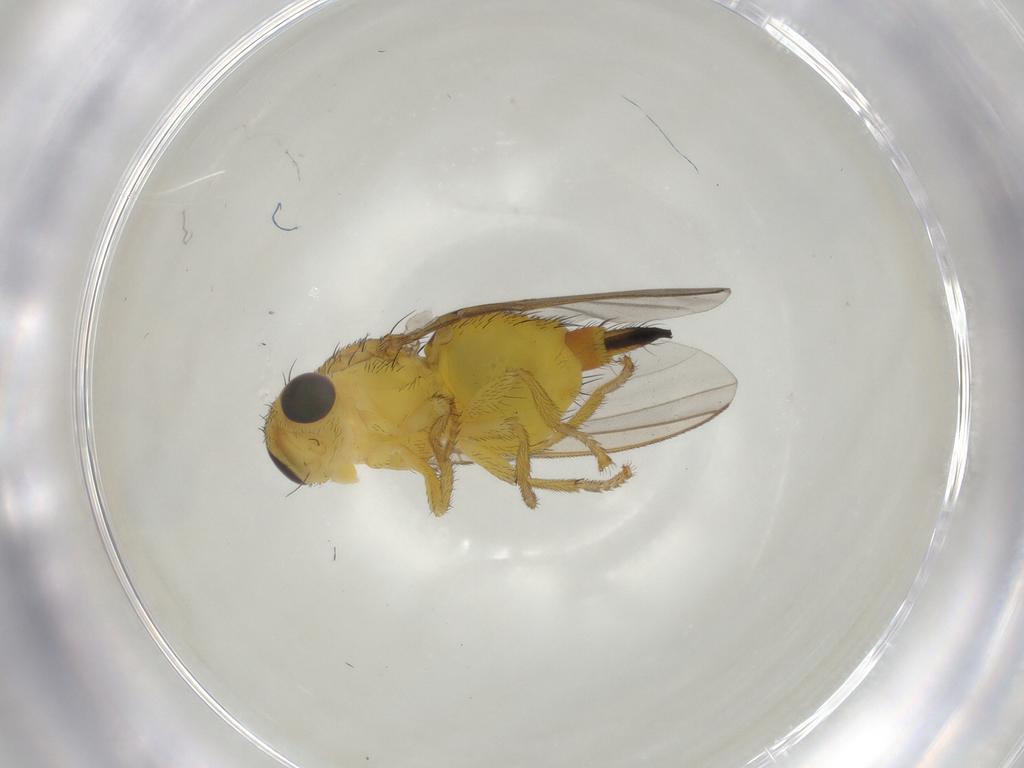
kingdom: Animalia
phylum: Arthropoda
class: Insecta
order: Diptera
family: Fergusoninidae
